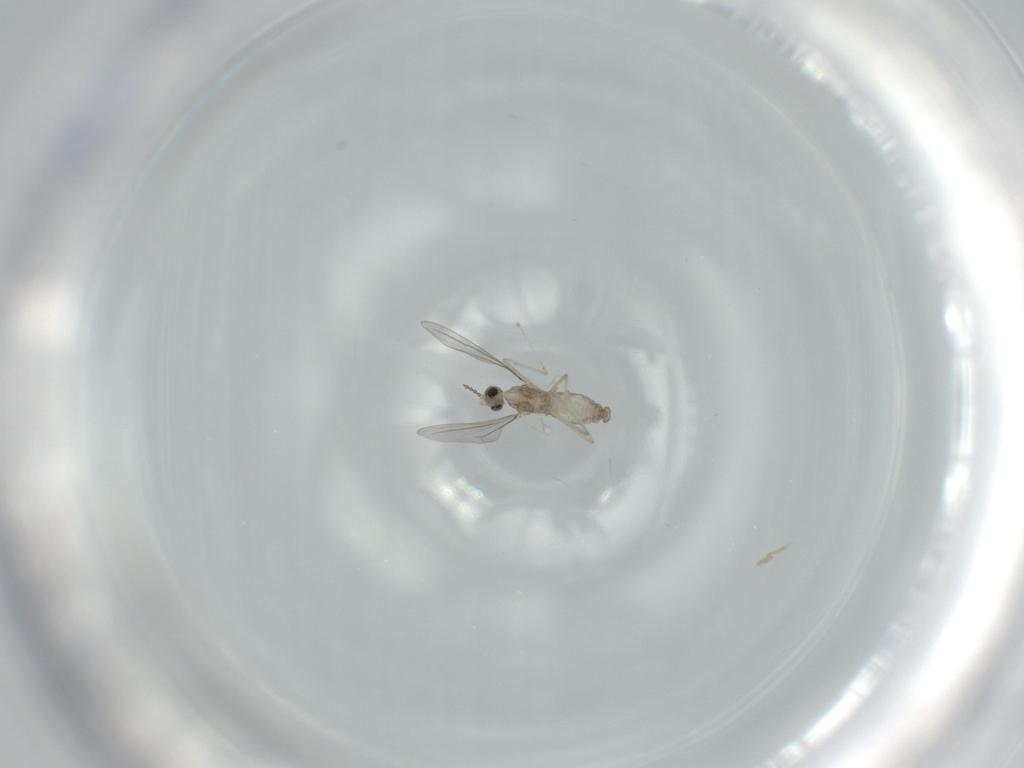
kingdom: Animalia
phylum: Arthropoda
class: Insecta
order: Diptera
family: Cecidomyiidae
